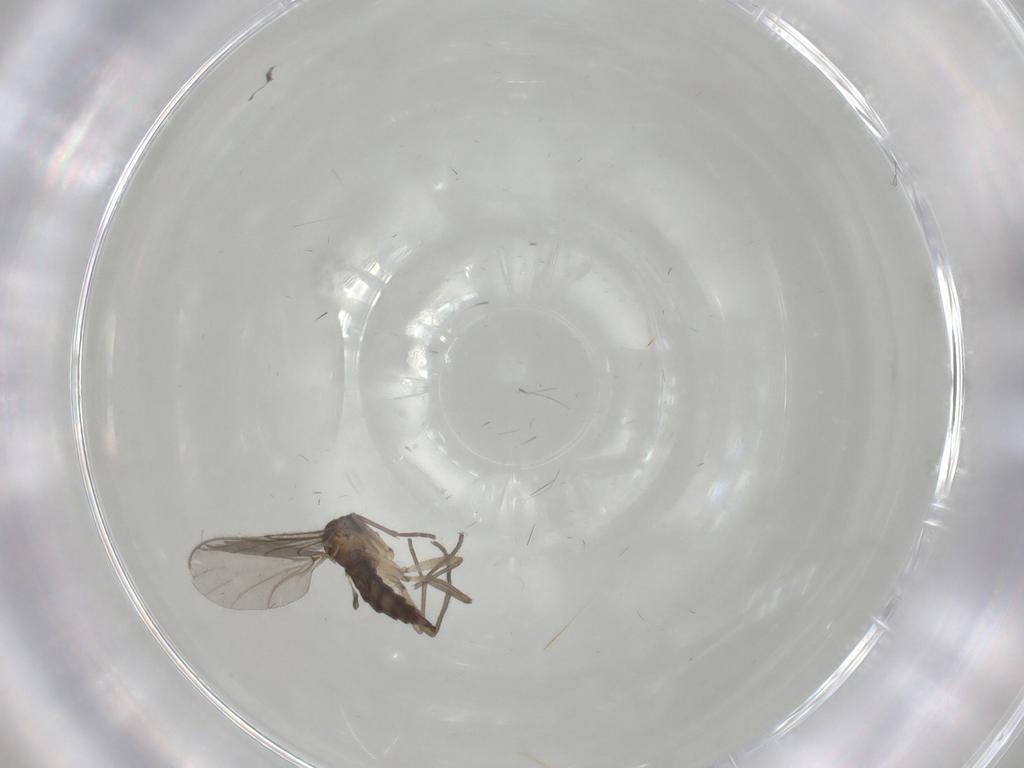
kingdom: Animalia
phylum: Arthropoda
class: Insecta
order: Diptera
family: Sciaridae
